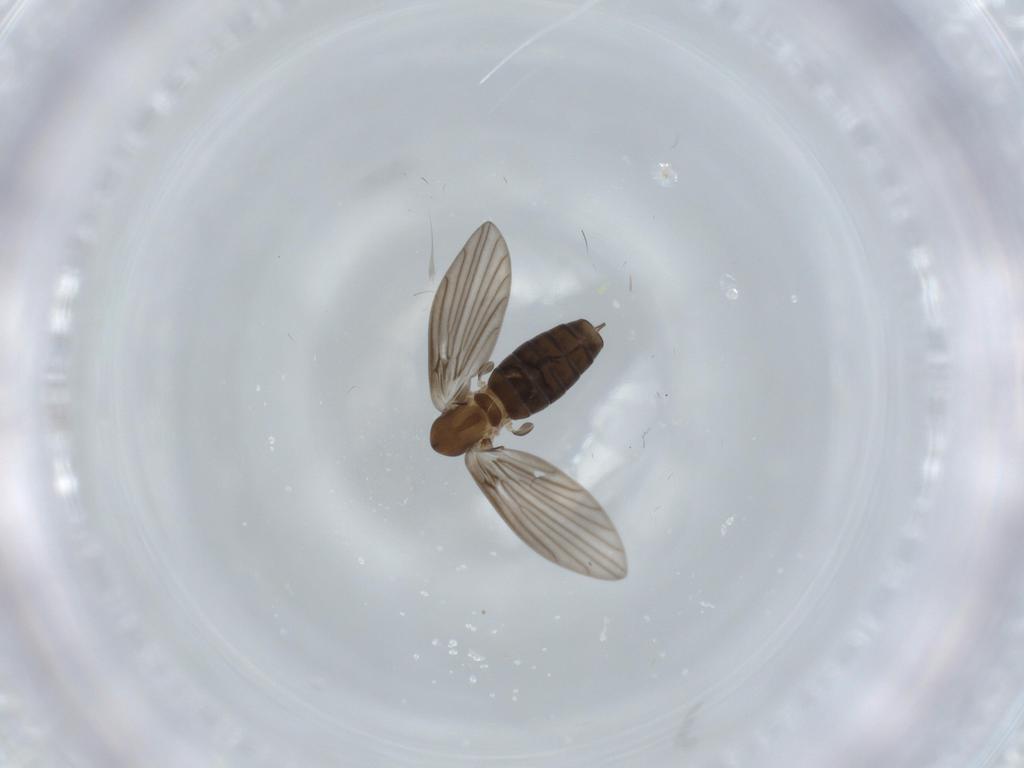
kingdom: Animalia
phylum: Arthropoda
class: Insecta
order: Diptera
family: Psychodidae
